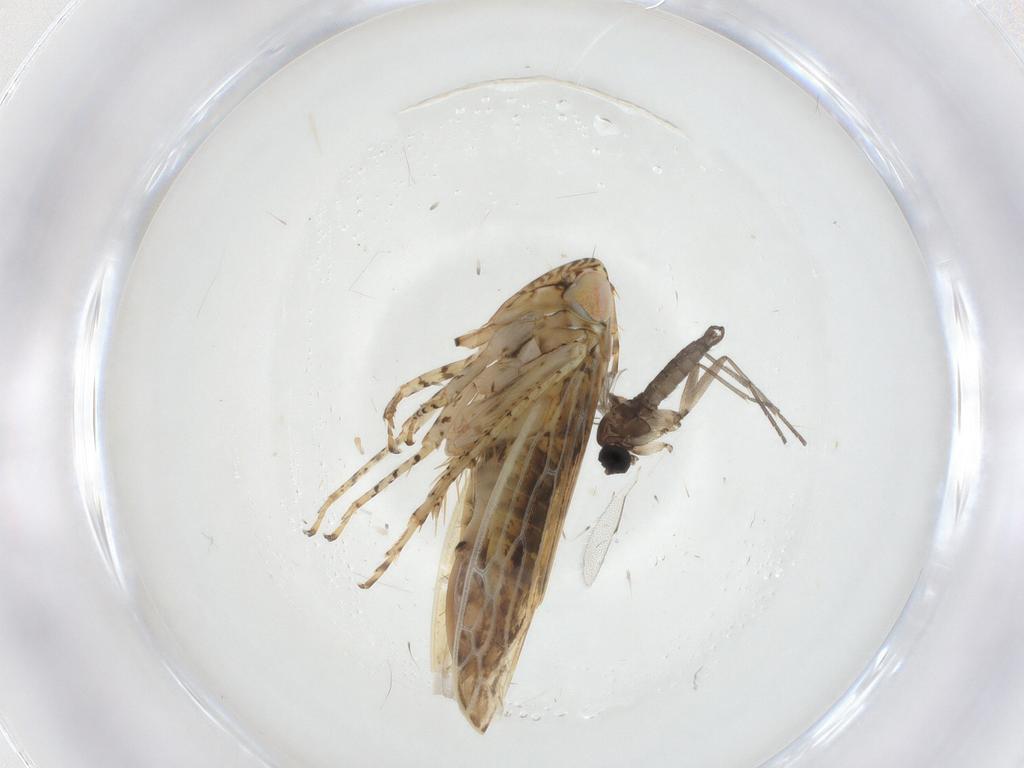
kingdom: Animalia
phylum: Arthropoda
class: Insecta
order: Diptera
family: Sciaridae
